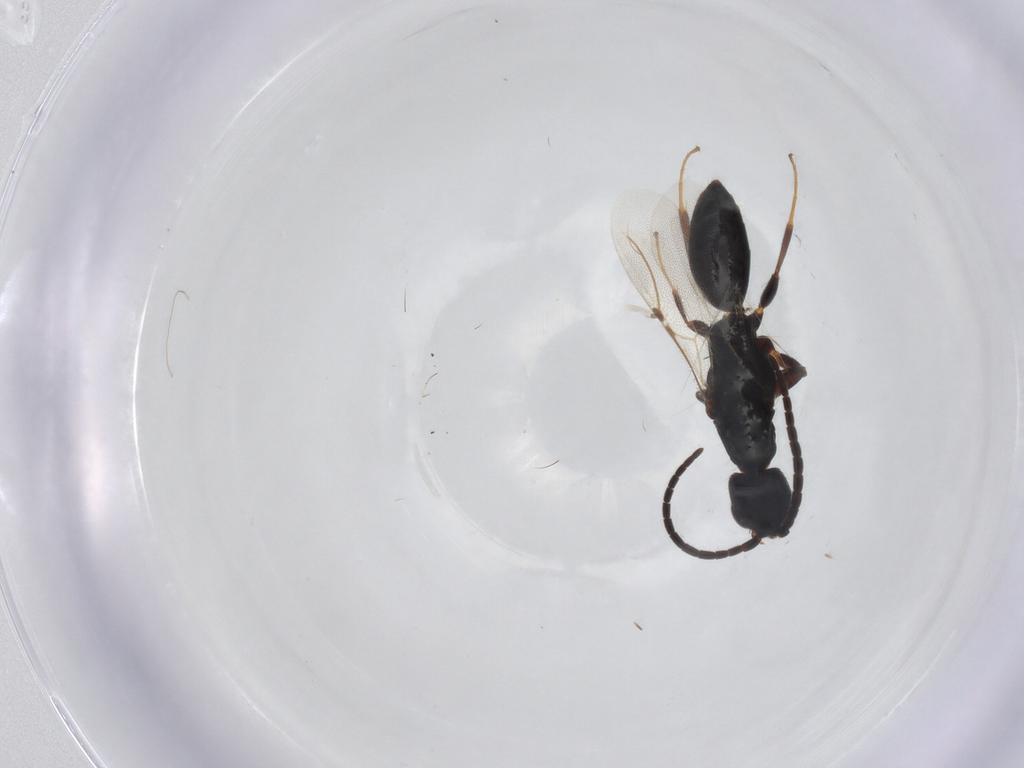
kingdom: Animalia
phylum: Arthropoda
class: Insecta
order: Hymenoptera
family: Bethylidae
